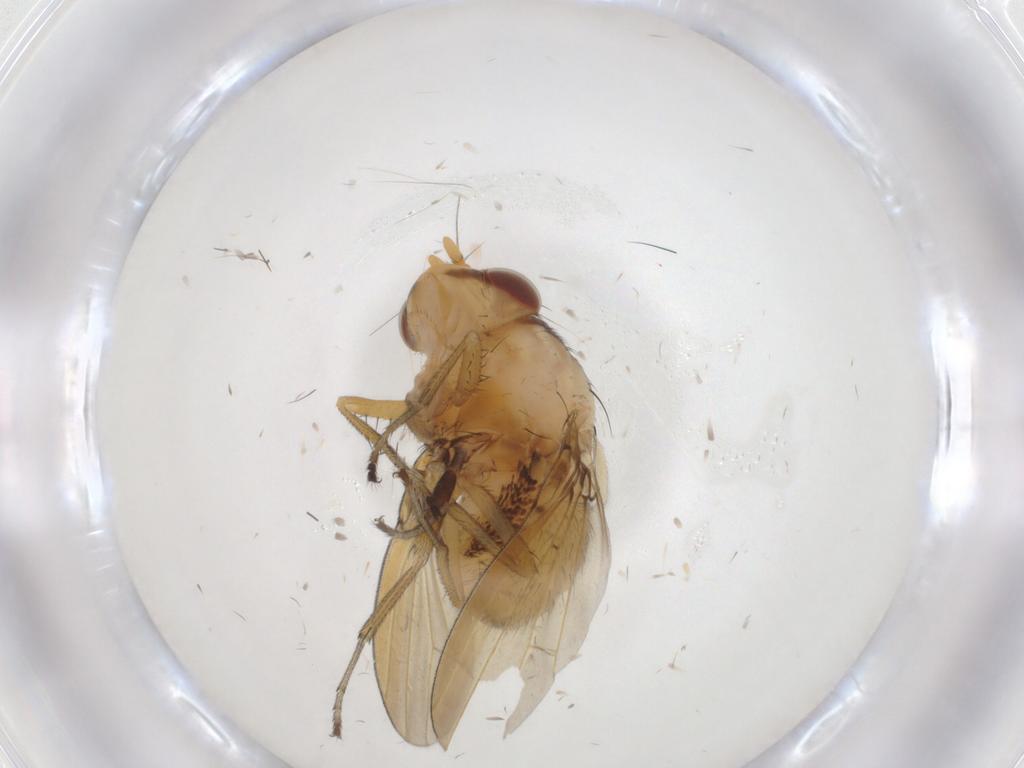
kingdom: Animalia
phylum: Arthropoda
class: Insecta
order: Diptera
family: Lauxaniidae
